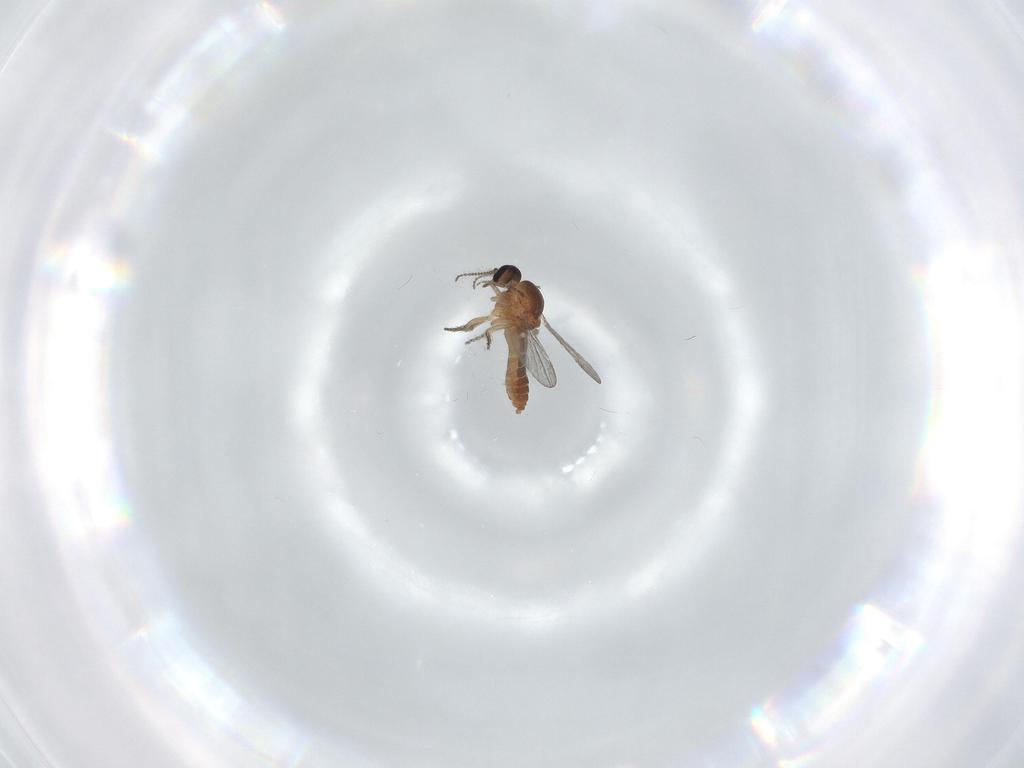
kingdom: Animalia
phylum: Arthropoda
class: Insecta
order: Diptera
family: Ceratopogonidae
